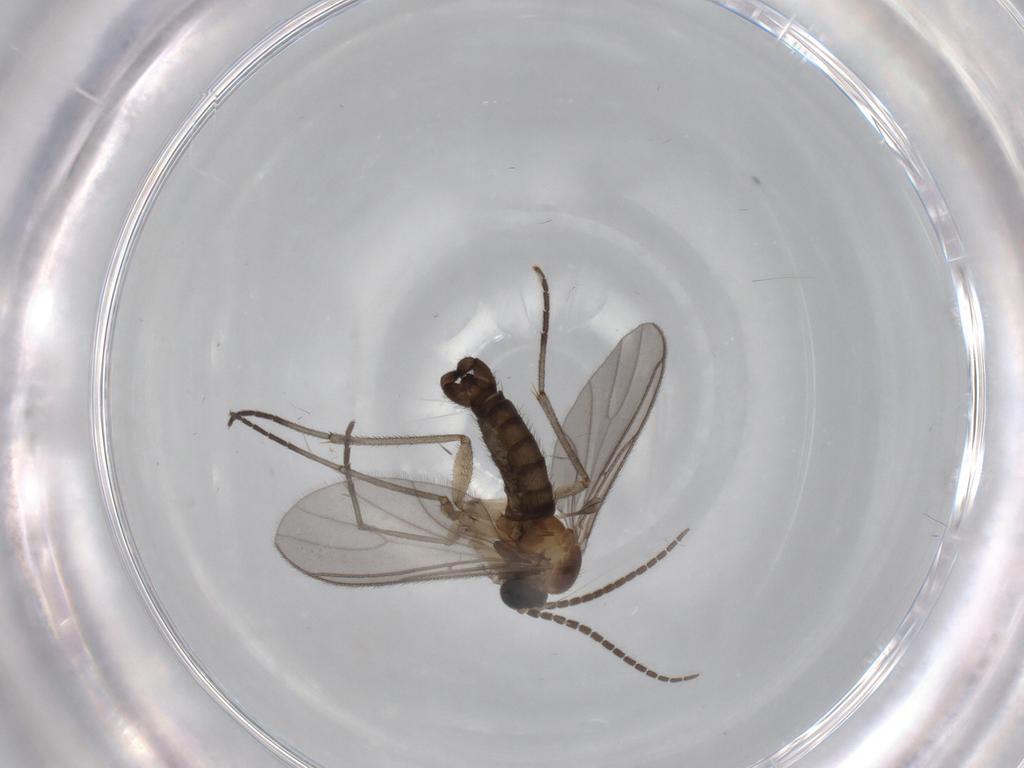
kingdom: Animalia
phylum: Arthropoda
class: Insecta
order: Diptera
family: Sciaridae
